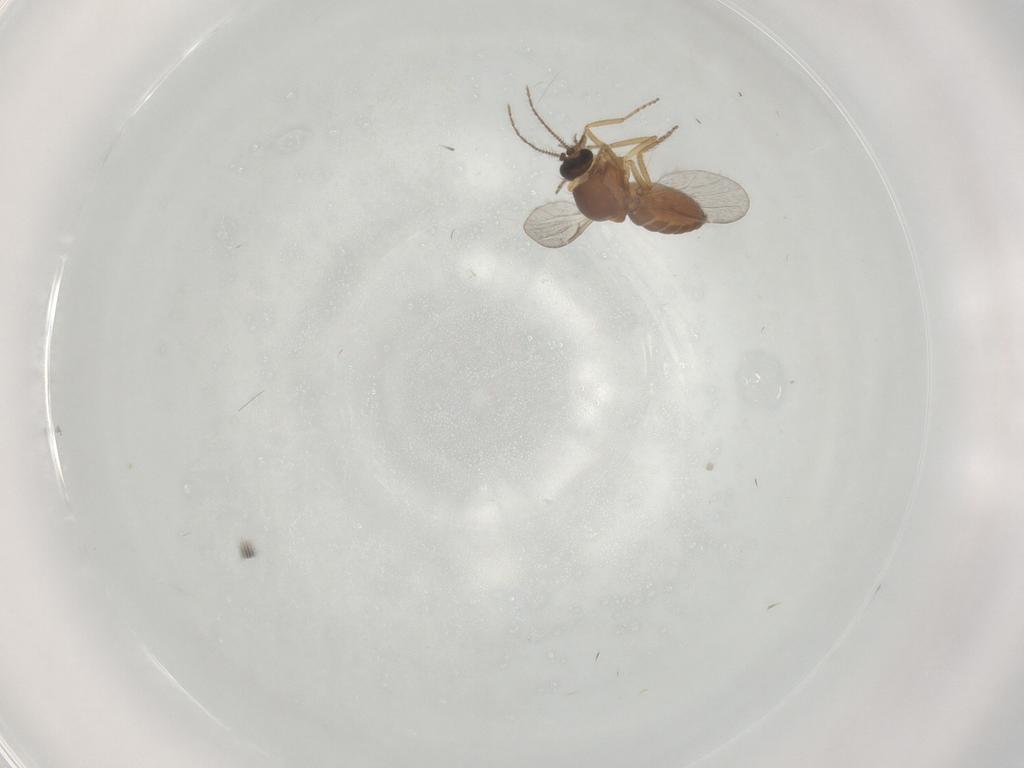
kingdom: Animalia
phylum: Arthropoda
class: Insecta
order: Diptera
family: Ceratopogonidae
